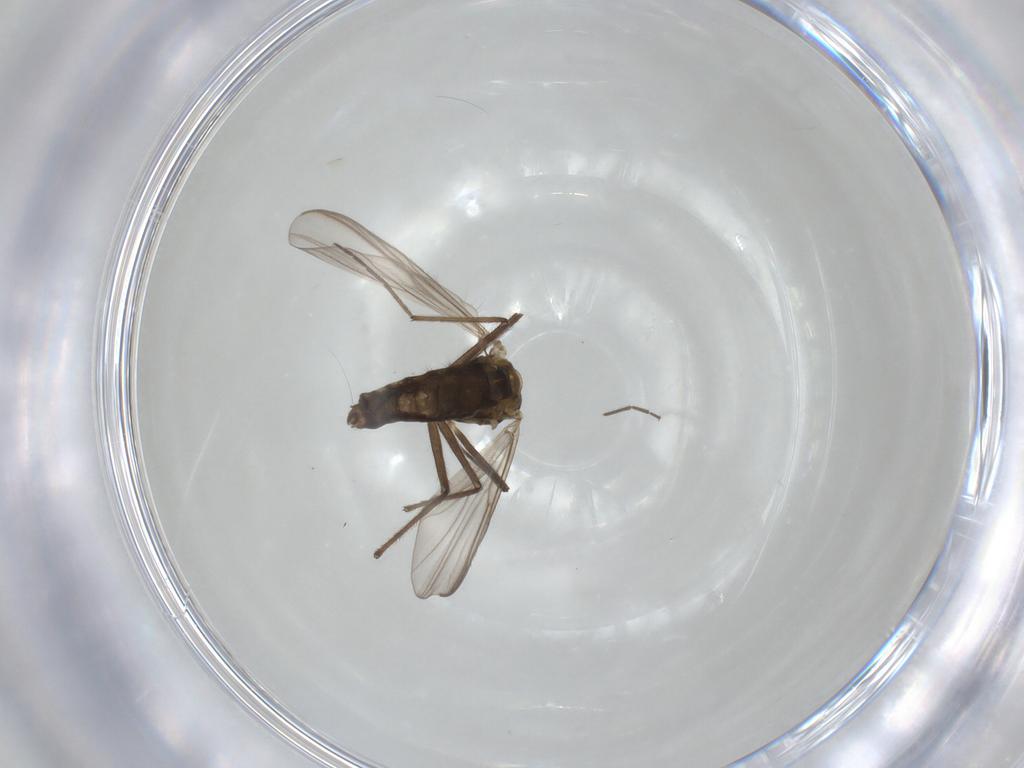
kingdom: Animalia
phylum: Arthropoda
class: Insecta
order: Diptera
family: Chironomidae
